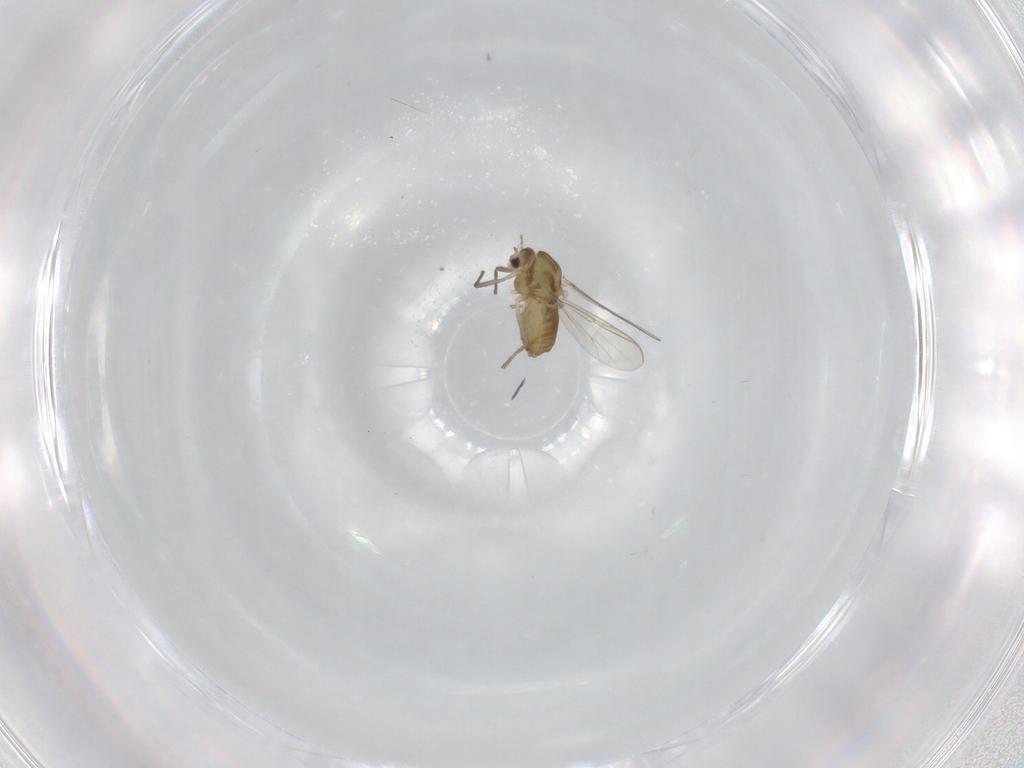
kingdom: Animalia
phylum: Arthropoda
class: Insecta
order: Diptera
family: Chironomidae
